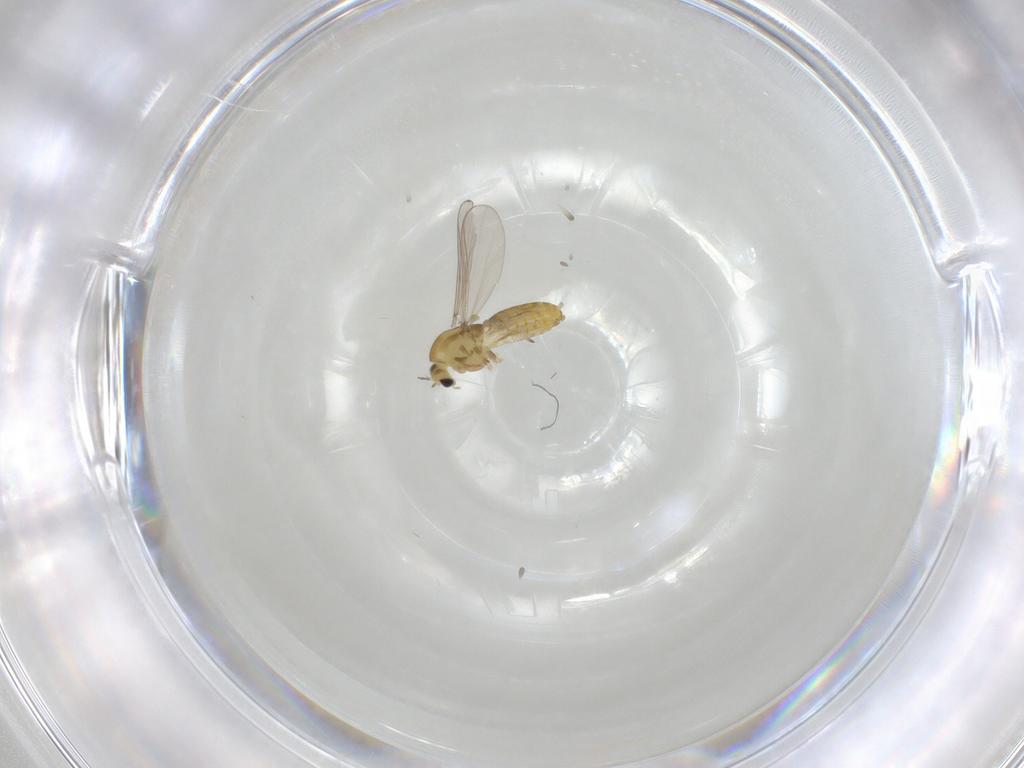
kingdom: Animalia
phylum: Arthropoda
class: Insecta
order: Diptera
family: Chironomidae
